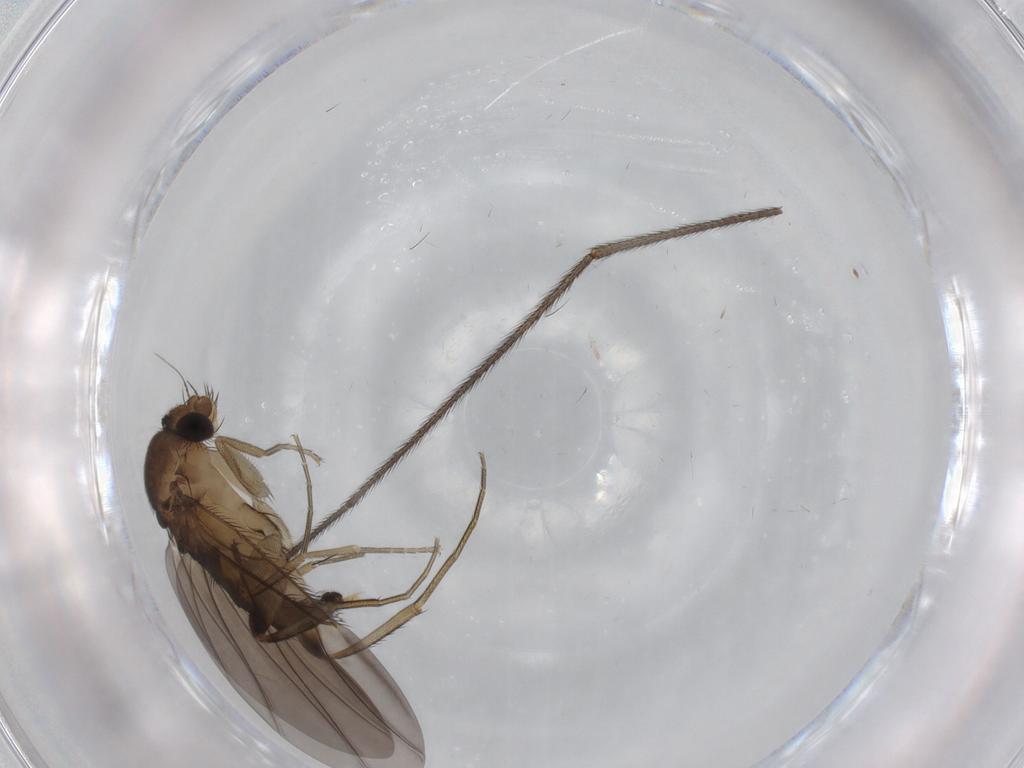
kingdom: Animalia
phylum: Arthropoda
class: Insecta
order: Diptera
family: Phoridae
